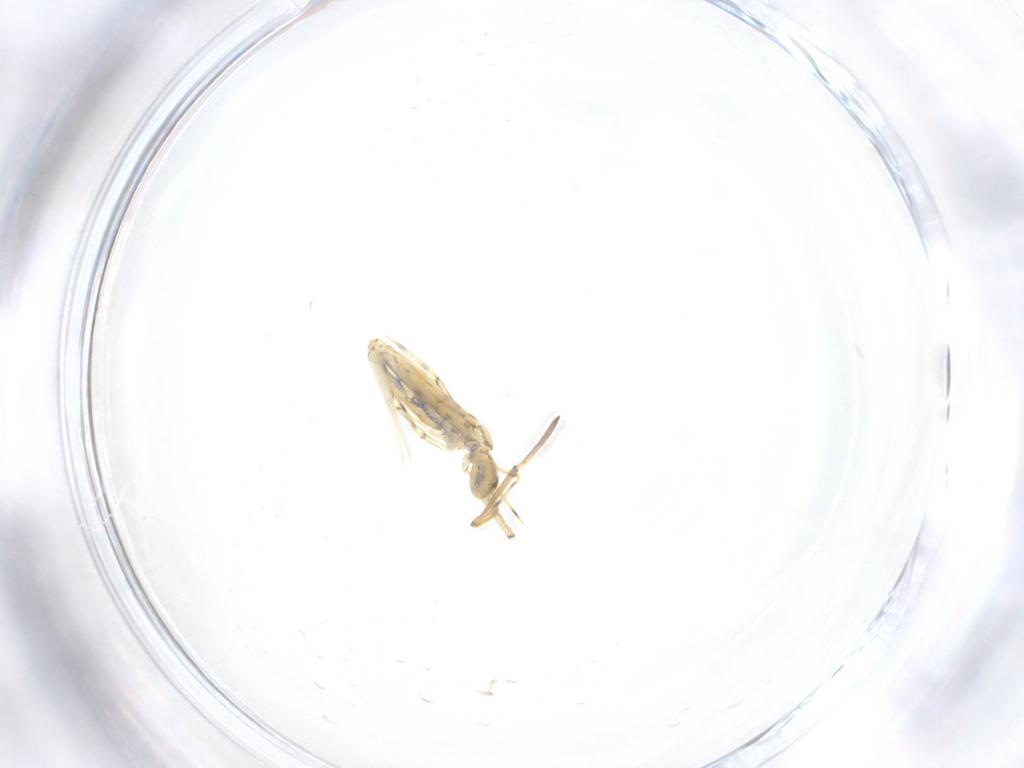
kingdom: Animalia
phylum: Arthropoda
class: Collembola
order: Entomobryomorpha
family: Paronellidae
